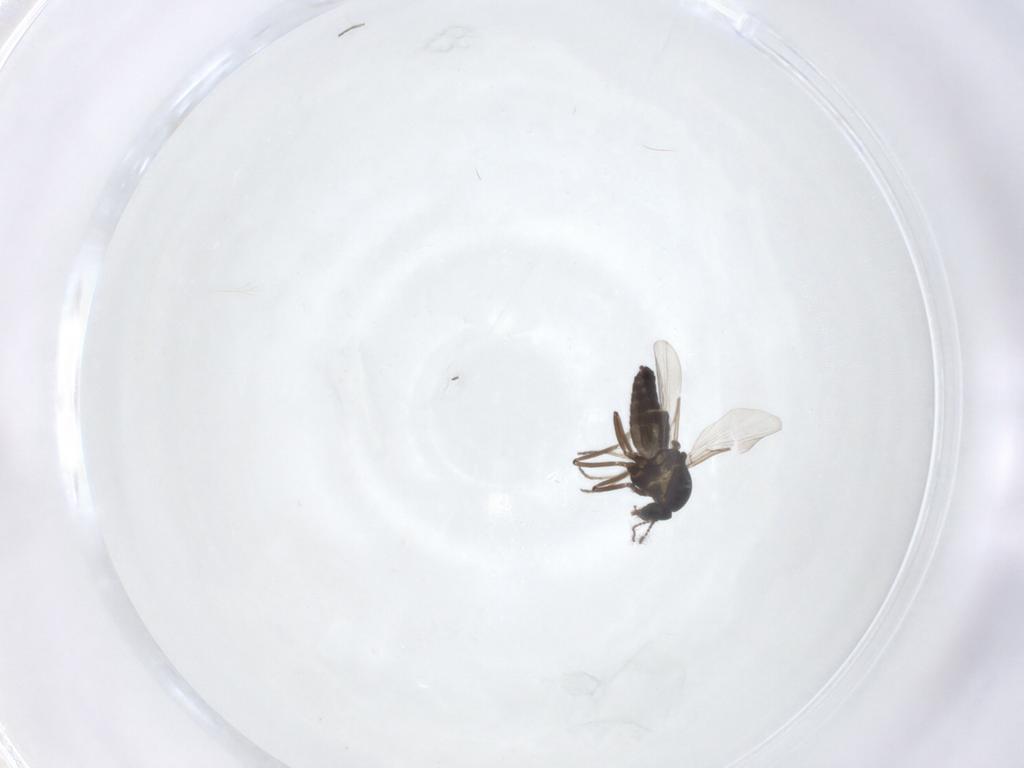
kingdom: Animalia
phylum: Arthropoda
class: Insecta
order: Diptera
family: Ceratopogonidae
